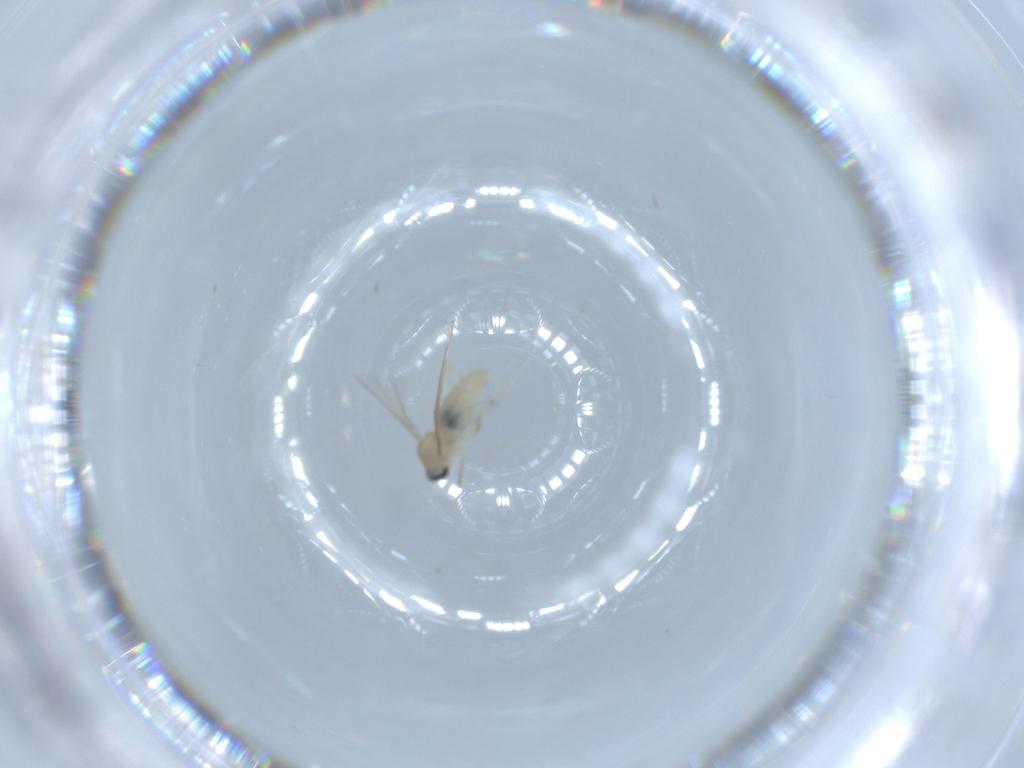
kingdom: Animalia
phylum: Arthropoda
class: Insecta
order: Diptera
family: Cecidomyiidae
